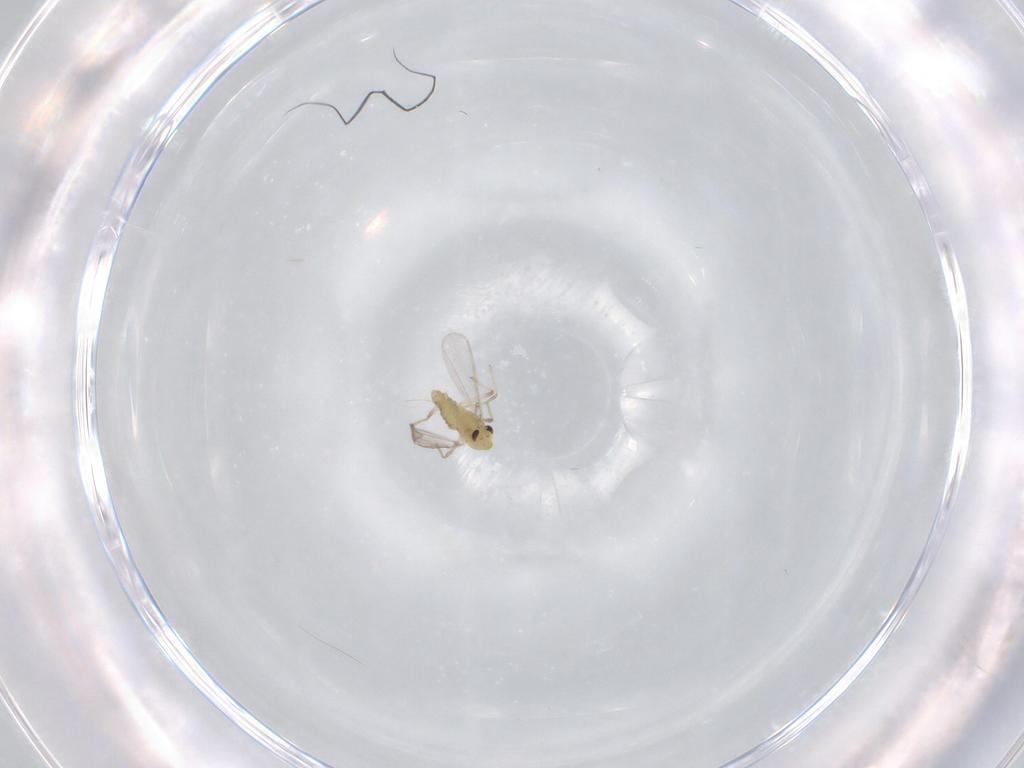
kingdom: Animalia
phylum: Arthropoda
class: Insecta
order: Diptera
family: Chironomidae
